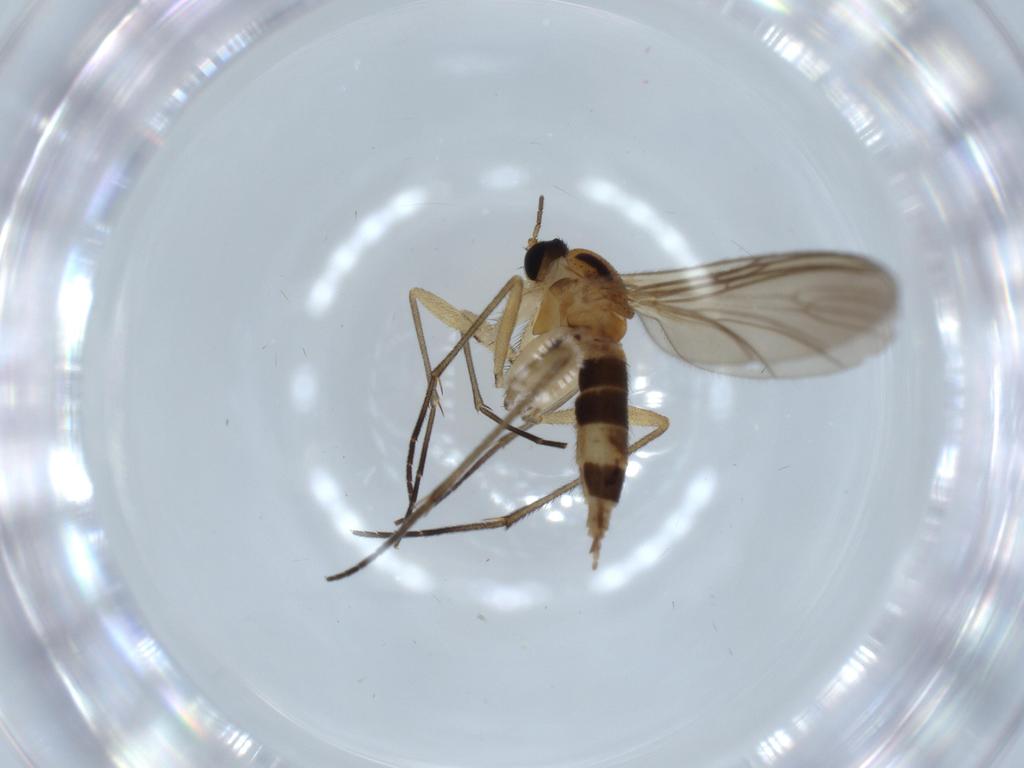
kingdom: Animalia
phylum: Arthropoda
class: Insecta
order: Diptera
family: Sciaridae
